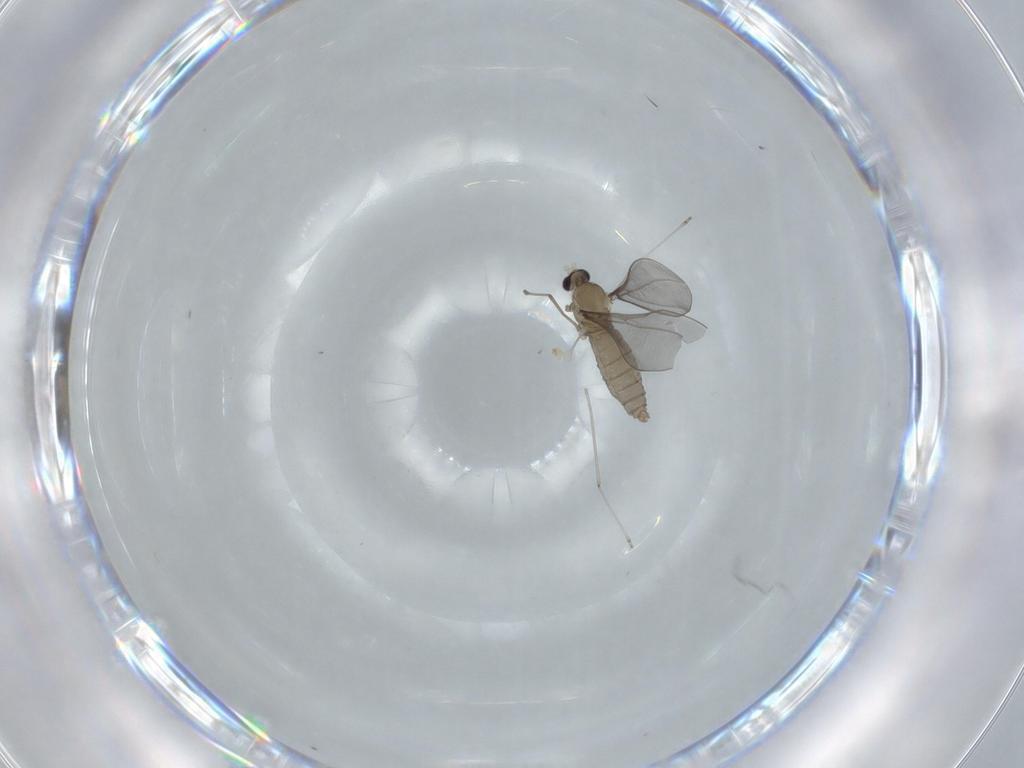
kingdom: Animalia
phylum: Arthropoda
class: Insecta
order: Diptera
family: Cecidomyiidae
